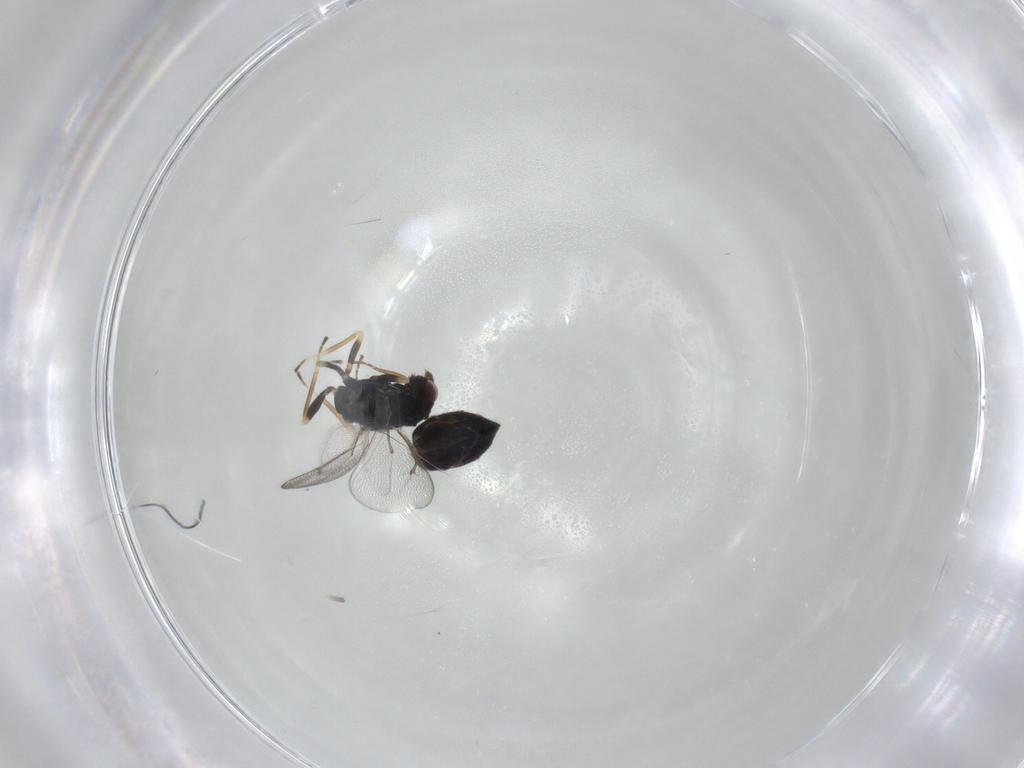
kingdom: Animalia
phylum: Arthropoda
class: Insecta
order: Hymenoptera
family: Eulophidae
